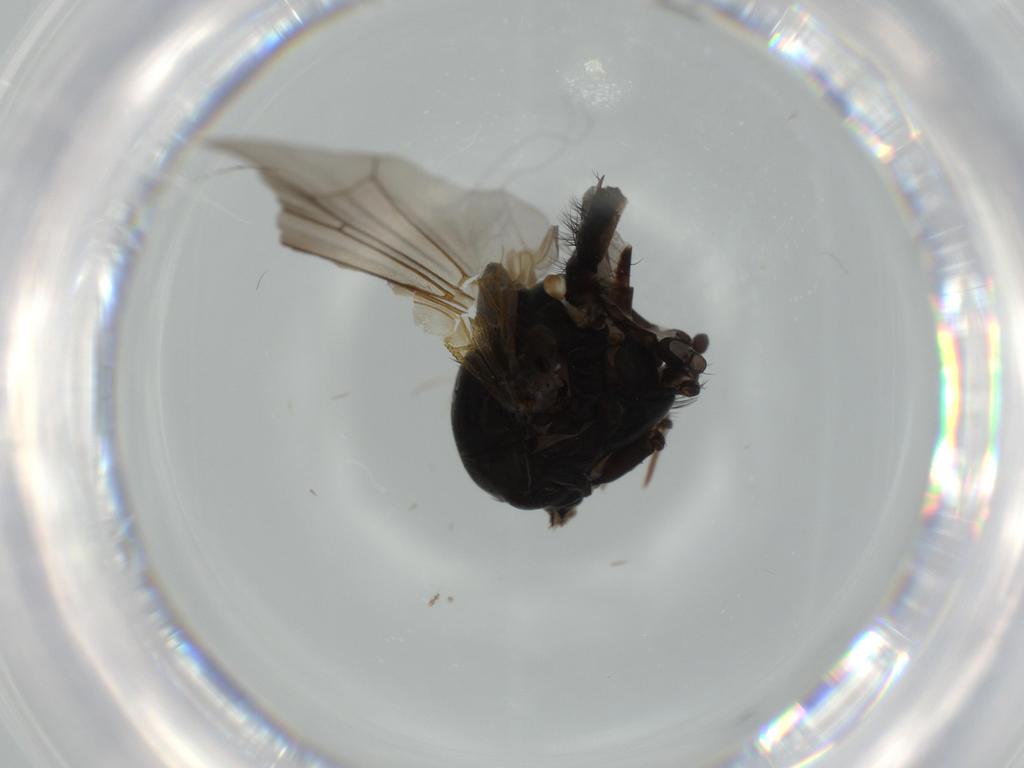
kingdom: Animalia
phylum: Arthropoda
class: Insecta
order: Diptera
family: Fannia
